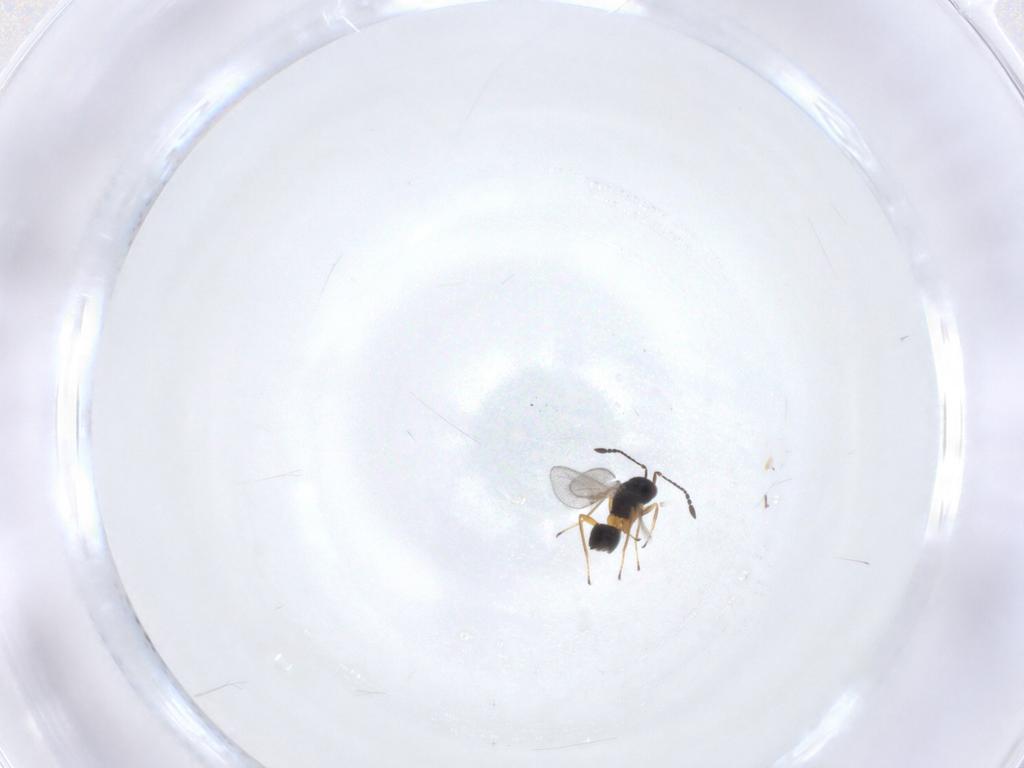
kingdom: Animalia
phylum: Arthropoda
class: Insecta
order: Hymenoptera
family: Mymaridae
